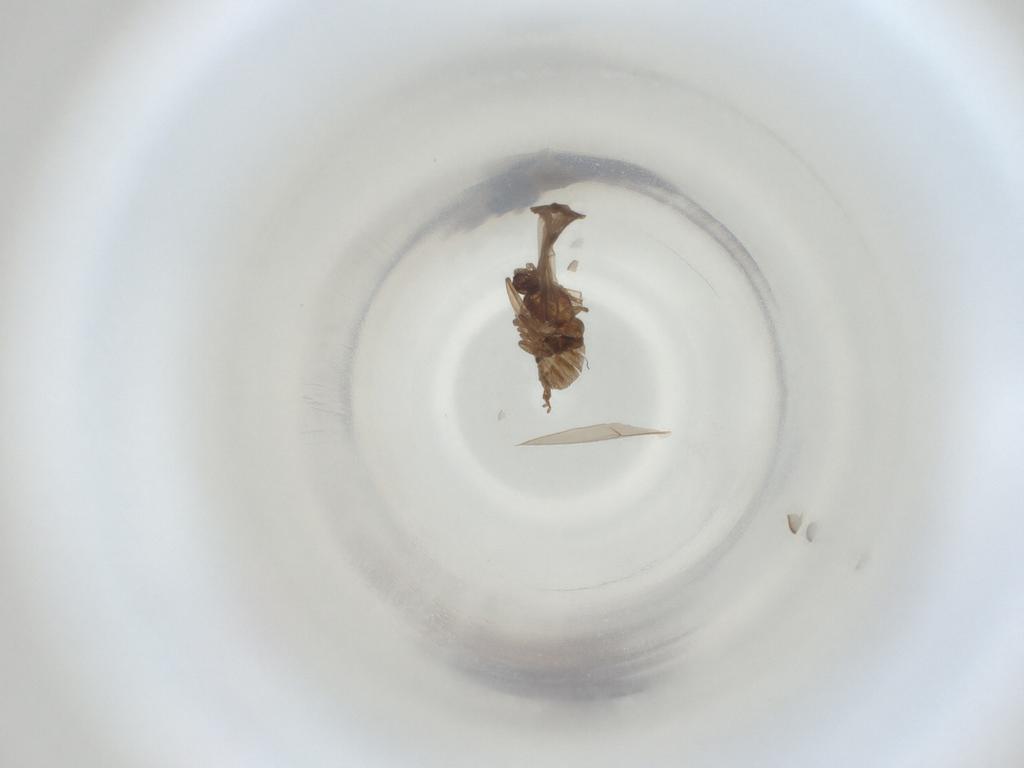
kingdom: Animalia
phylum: Arthropoda
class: Insecta
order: Diptera
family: Cecidomyiidae
